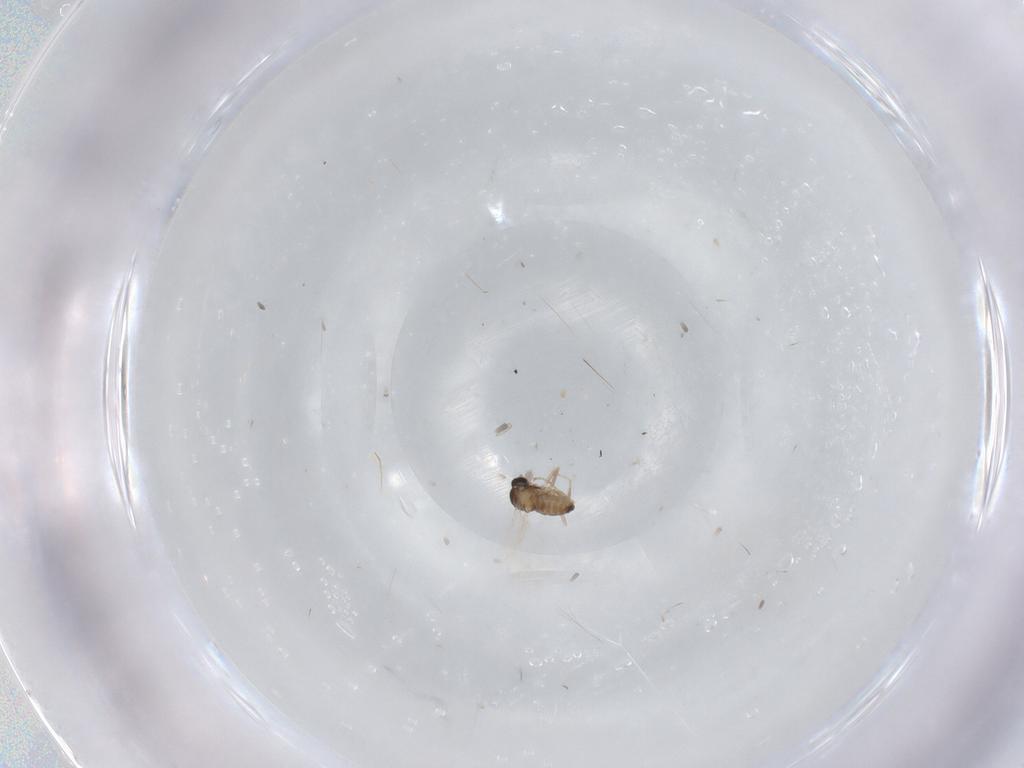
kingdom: Animalia
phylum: Arthropoda
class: Insecta
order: Diptera
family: Cecidomyiidae
